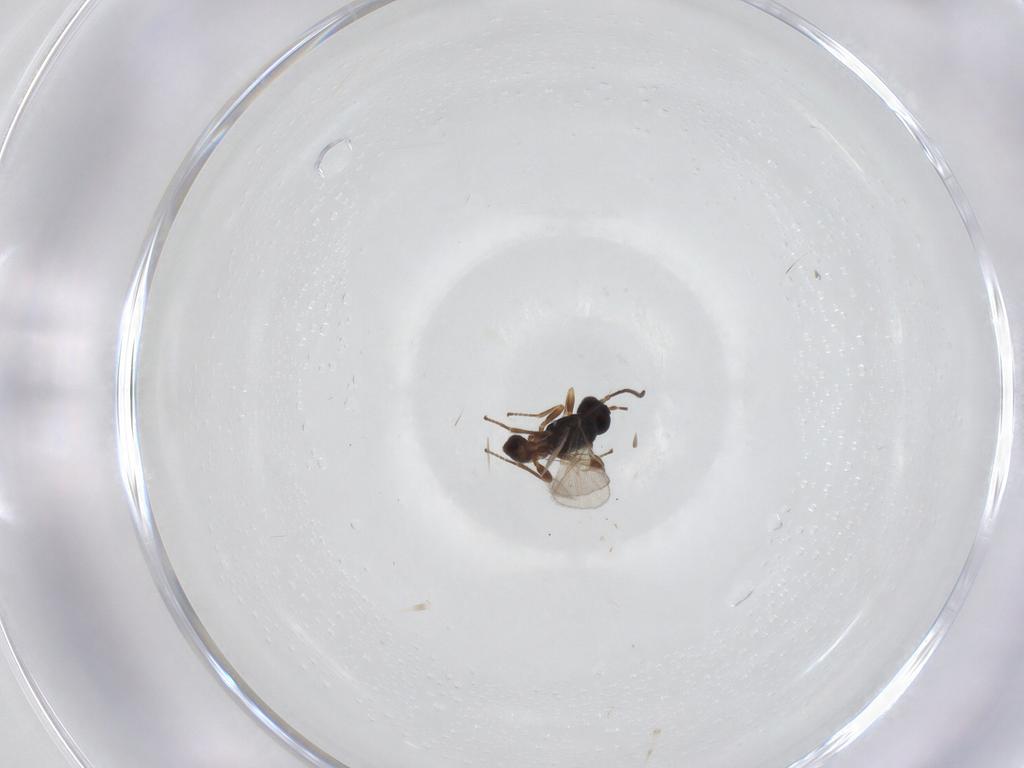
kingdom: Animalia
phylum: Arthropoda
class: Insecta
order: Hymenoptera
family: Braconidae
